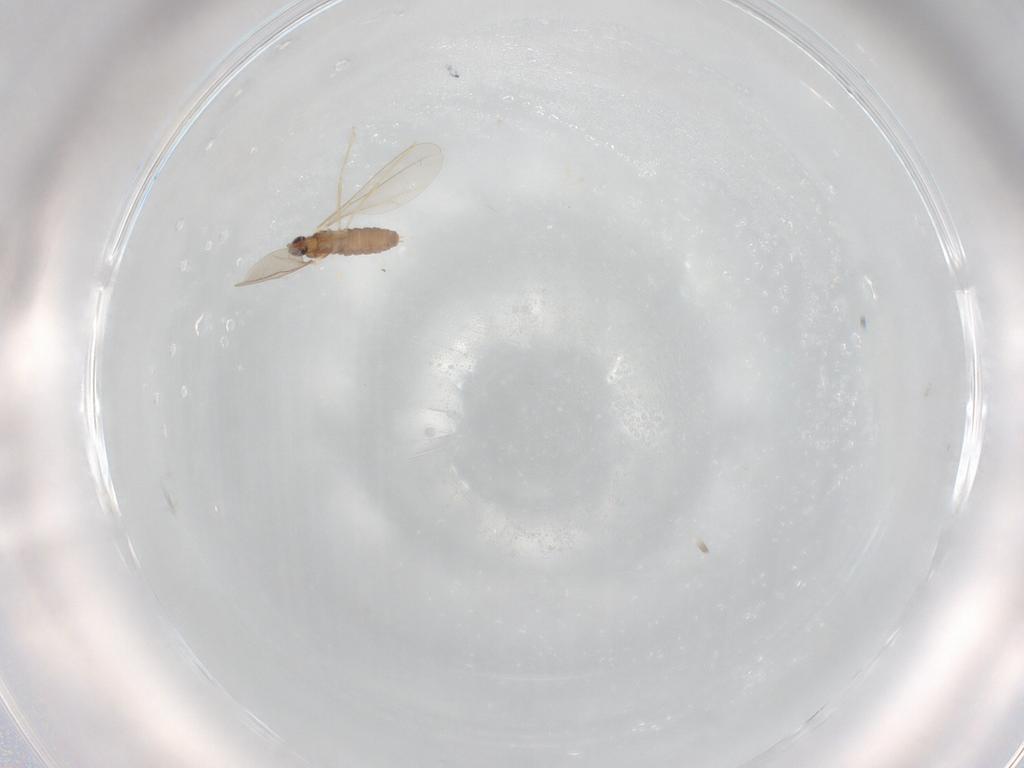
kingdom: Animalia
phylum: Arthropoda
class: Insecta
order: Diptera
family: Cecidomyiidae
